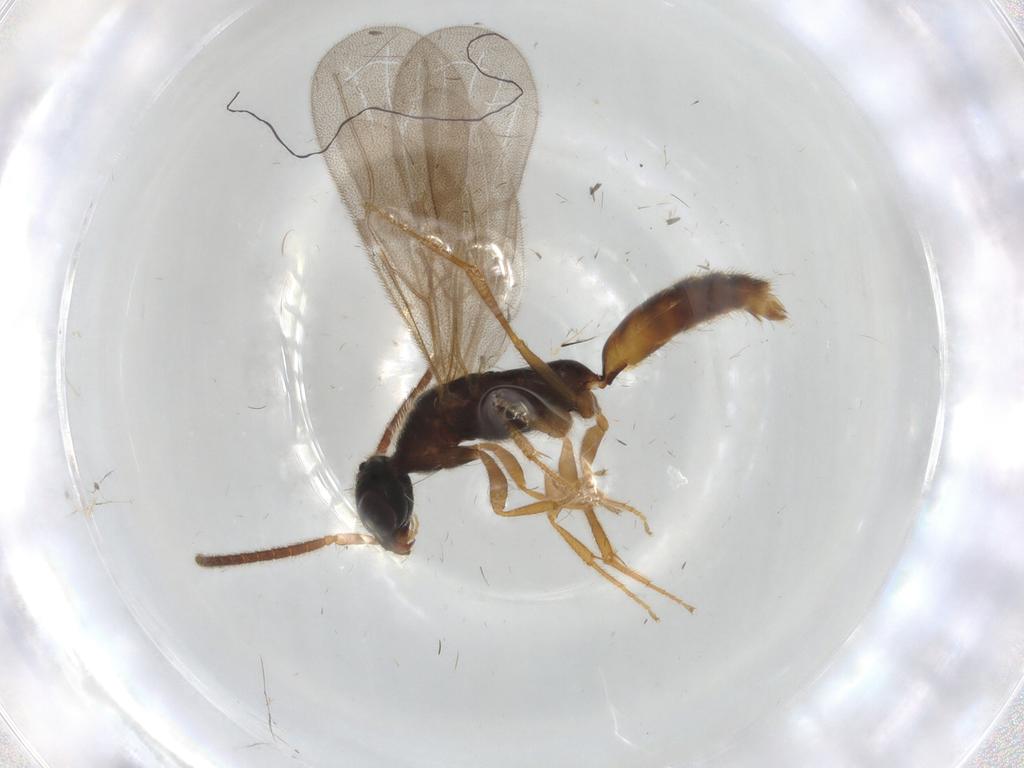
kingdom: Animalia
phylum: Arthropoda
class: Insecta
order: Hymenoptera
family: Bethylidae
